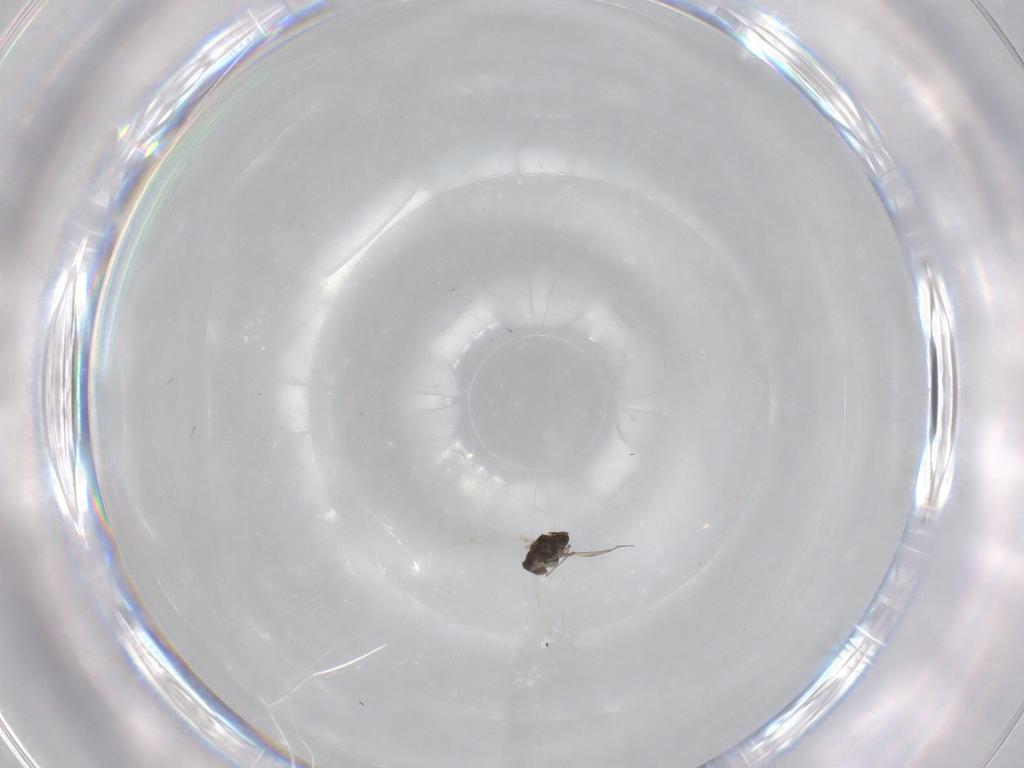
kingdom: Animalia
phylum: Arthropoda
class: Insecta
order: Diptera
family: Chironomidae
